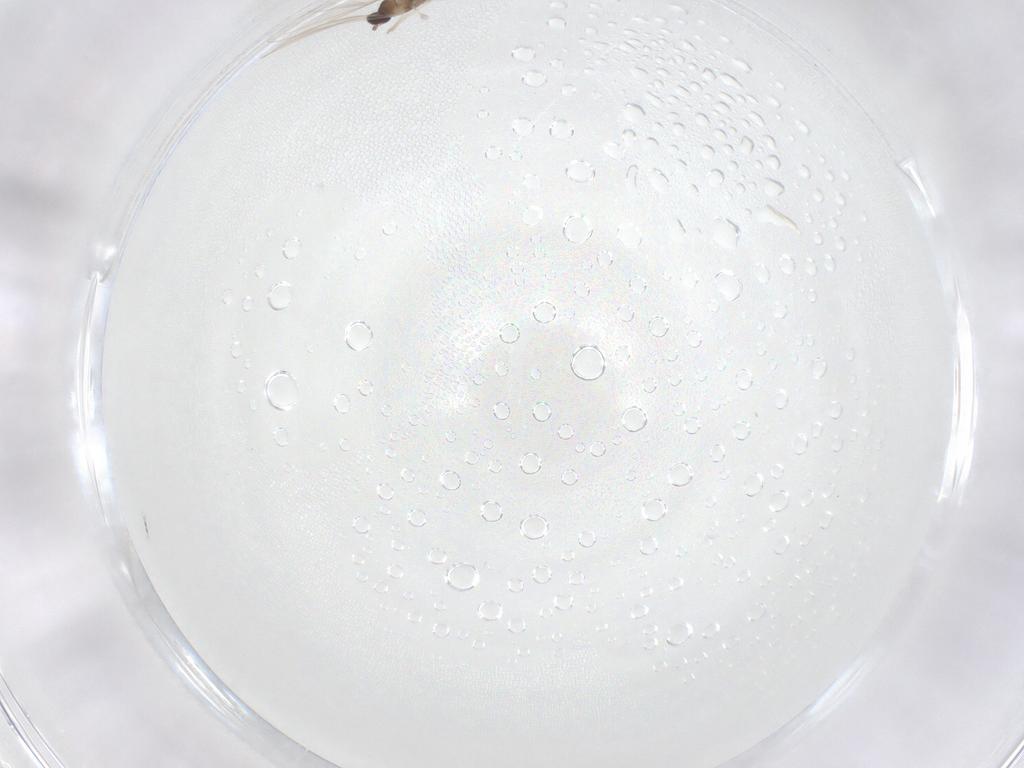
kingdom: Animalia
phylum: Arthropoda
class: Insecta
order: Diptera
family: Cecidomyiidae
